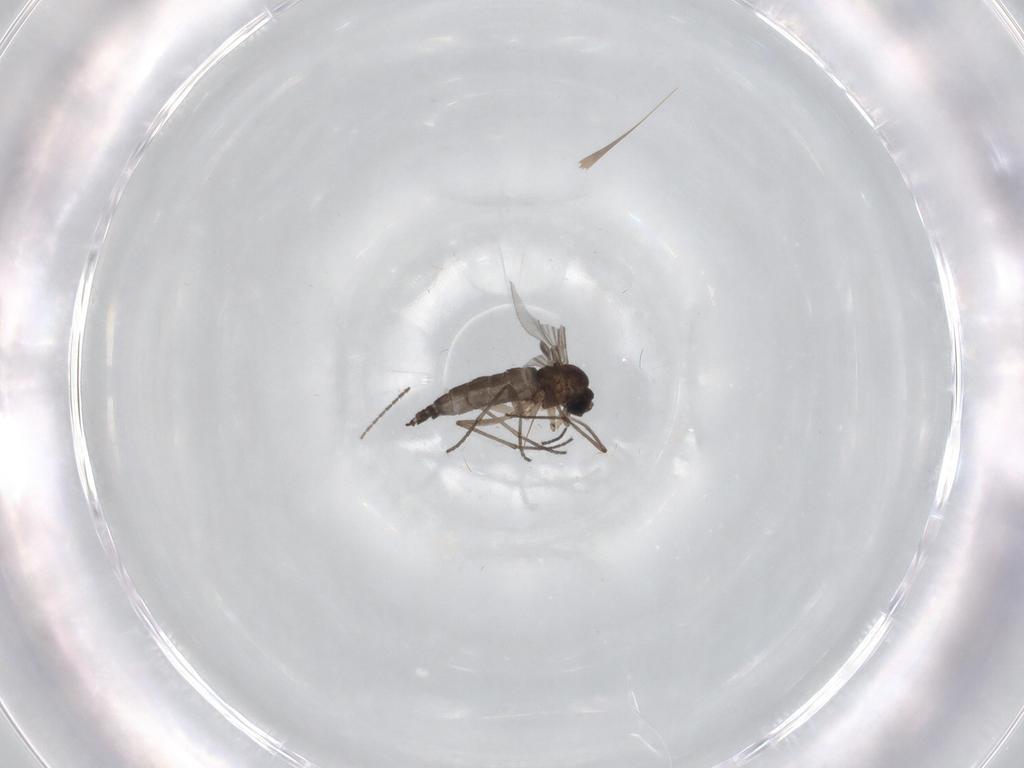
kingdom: Animalia
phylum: Arthropoda
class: Insecta
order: Diptera
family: Sciaridae
